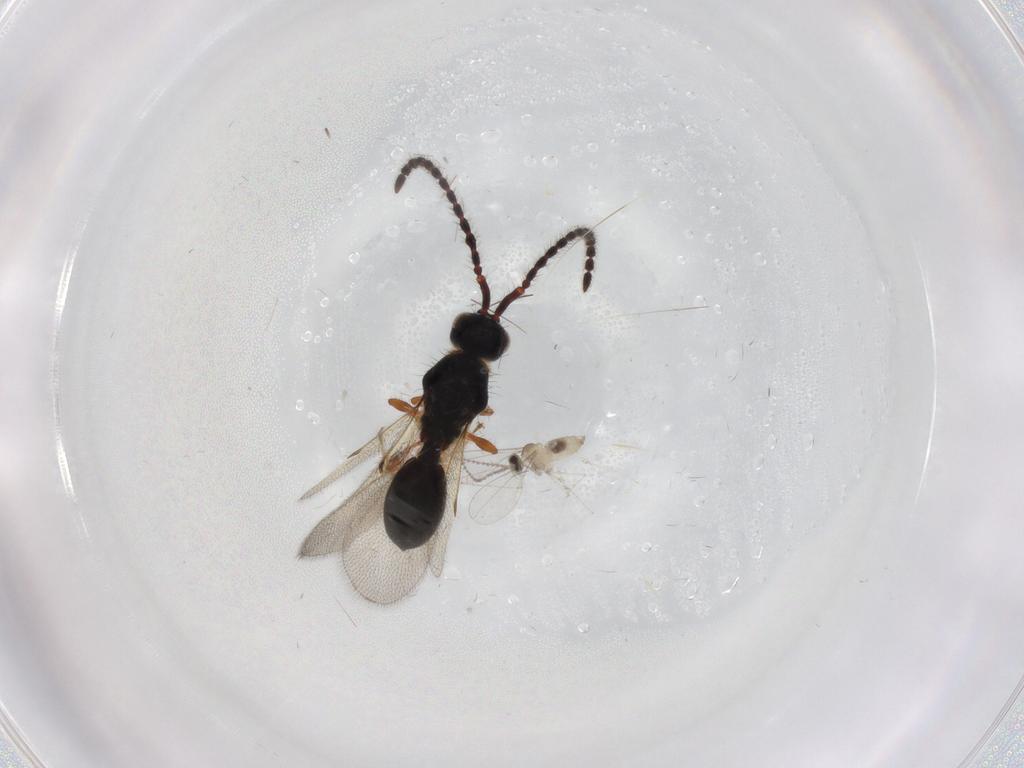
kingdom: Animalia
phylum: Arthropoda
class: Insecta
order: Diptera
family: Cecidomyiidae
